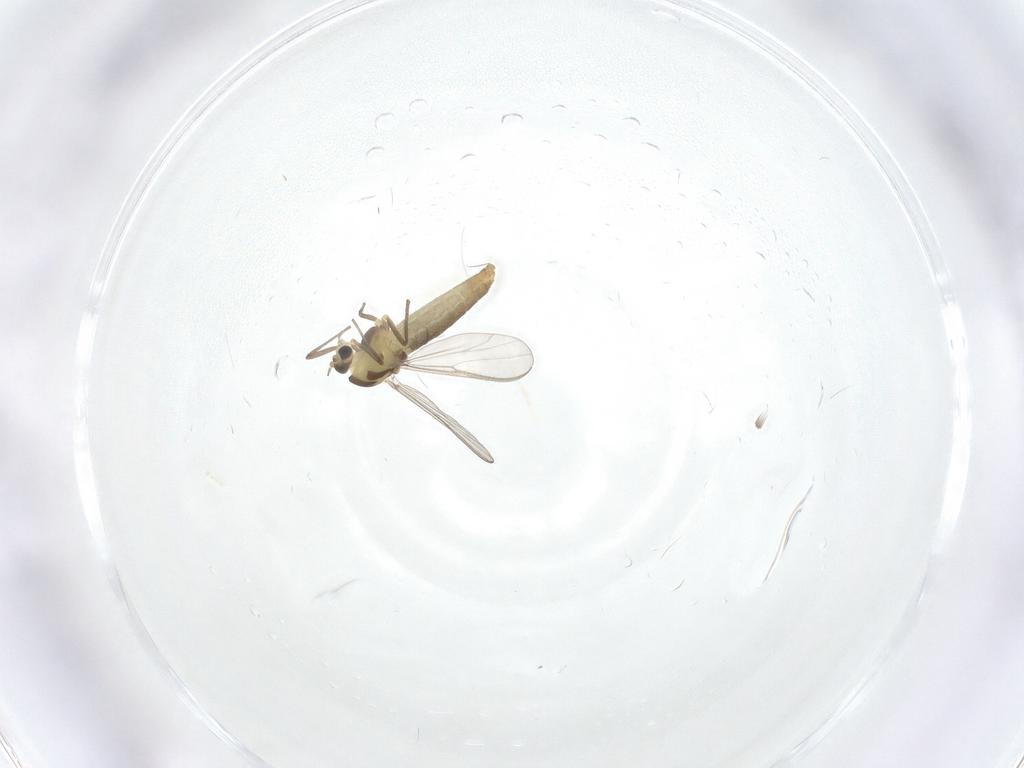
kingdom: Animalia
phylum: Arthropoda
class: Insecta
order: Diptera
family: Chironomidae
